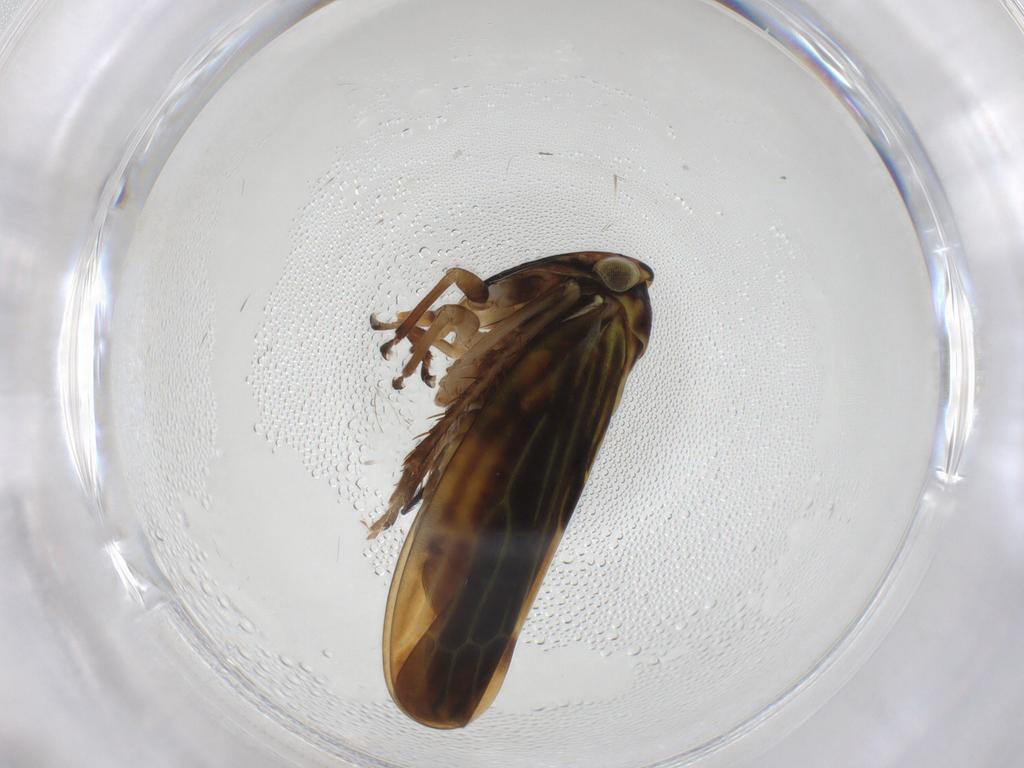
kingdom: Animalia
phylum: Arthropoda
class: Insecta
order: Hemiptera
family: Cicadellidae
